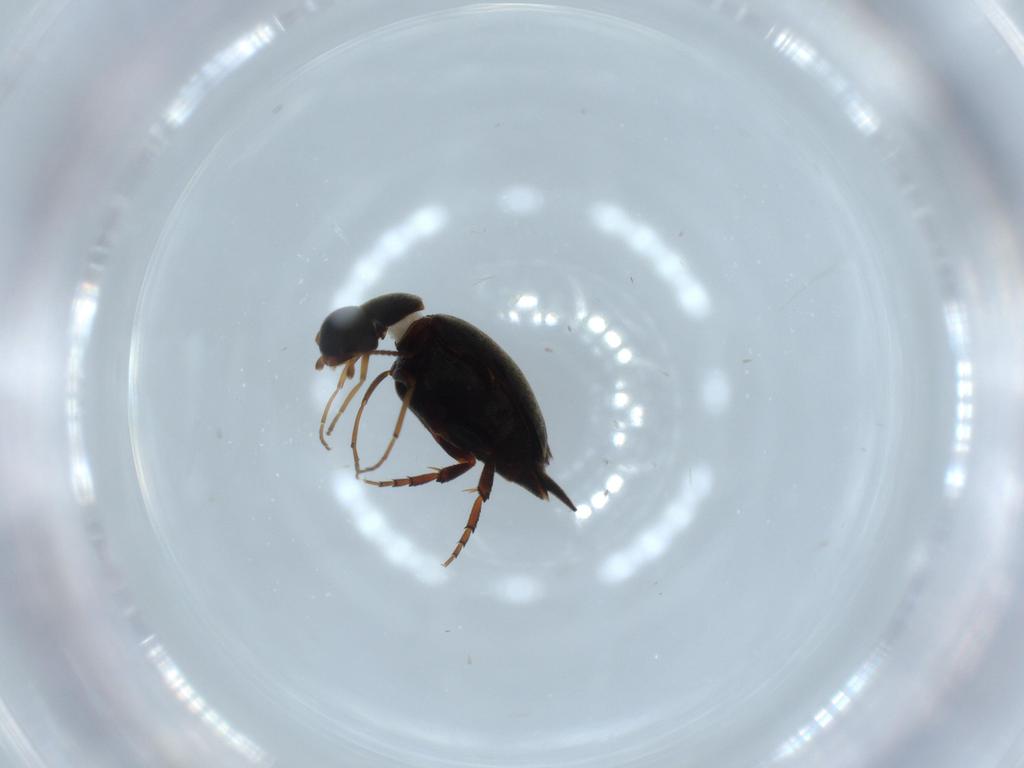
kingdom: Animalia
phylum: Arthropoda
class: Insecta
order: Coleoptera
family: Mordellidae
